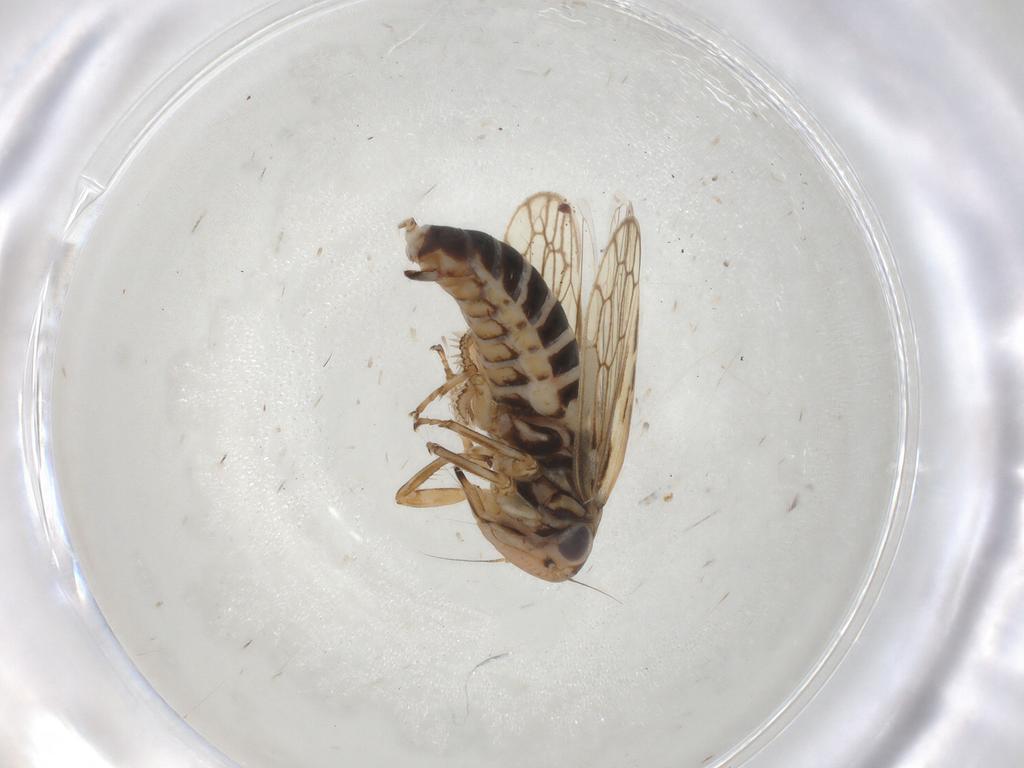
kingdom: Animalia
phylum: Arthropoda
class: Insecta
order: Hemiptera
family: Cicadellidae
